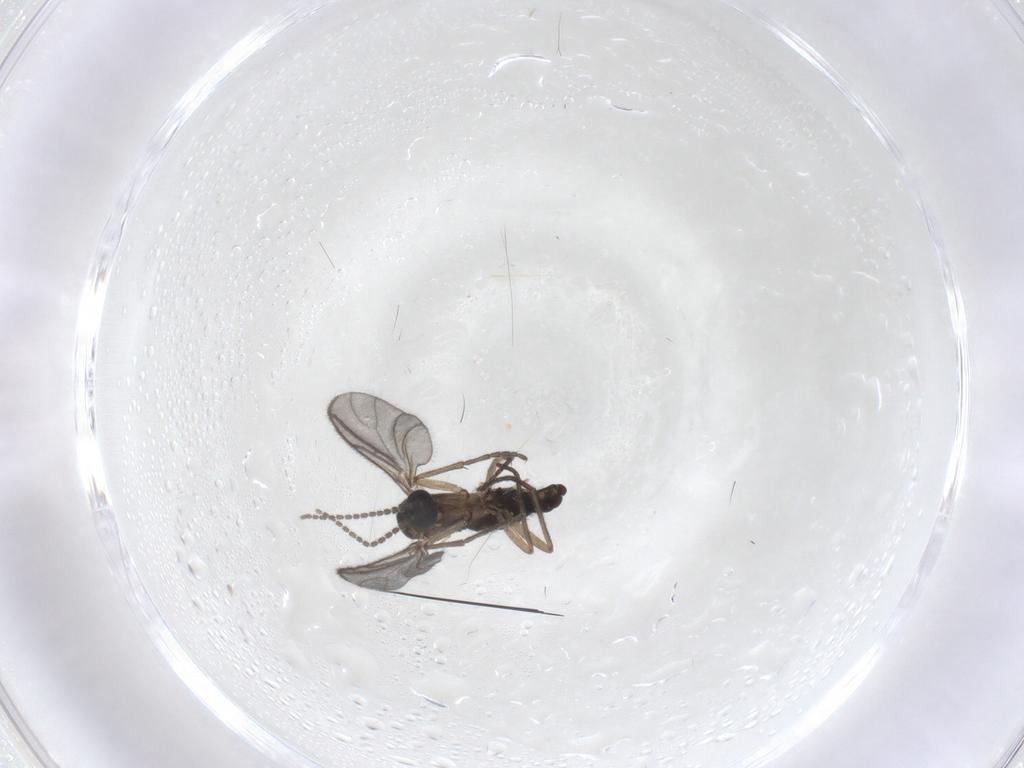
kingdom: Animalia
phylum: Arthropoda
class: Insecta
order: Diptera
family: Sciaridae
